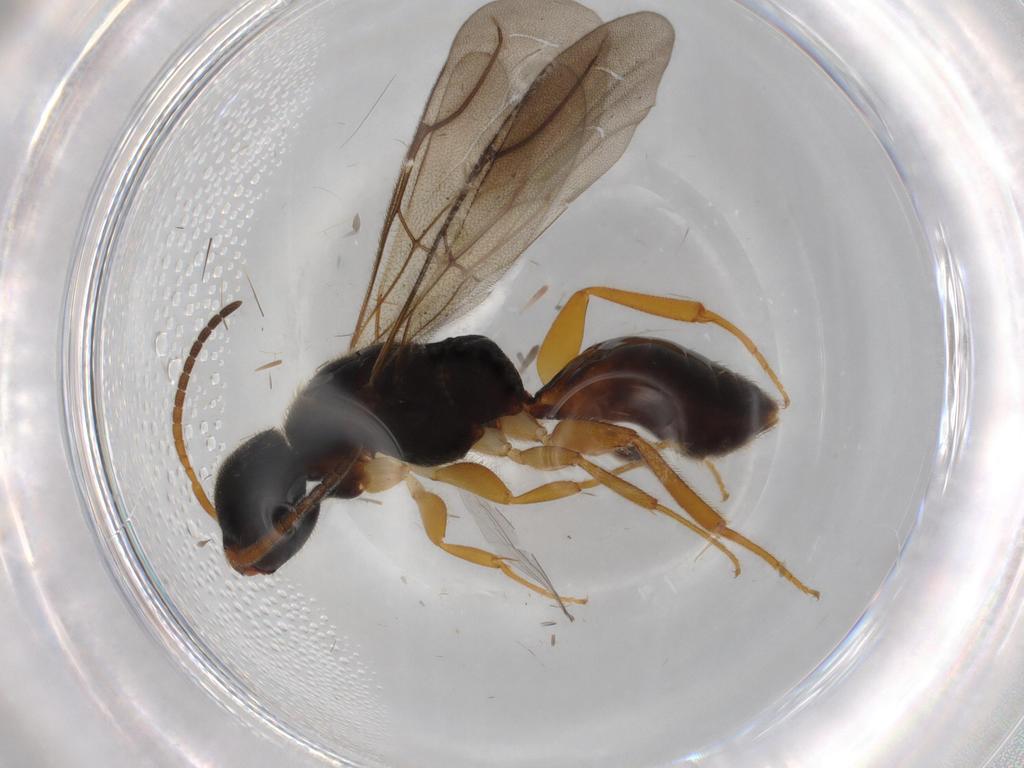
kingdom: Animalia
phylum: Arthropoda
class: Insecta
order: Hymenoptera
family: Bethylidae
